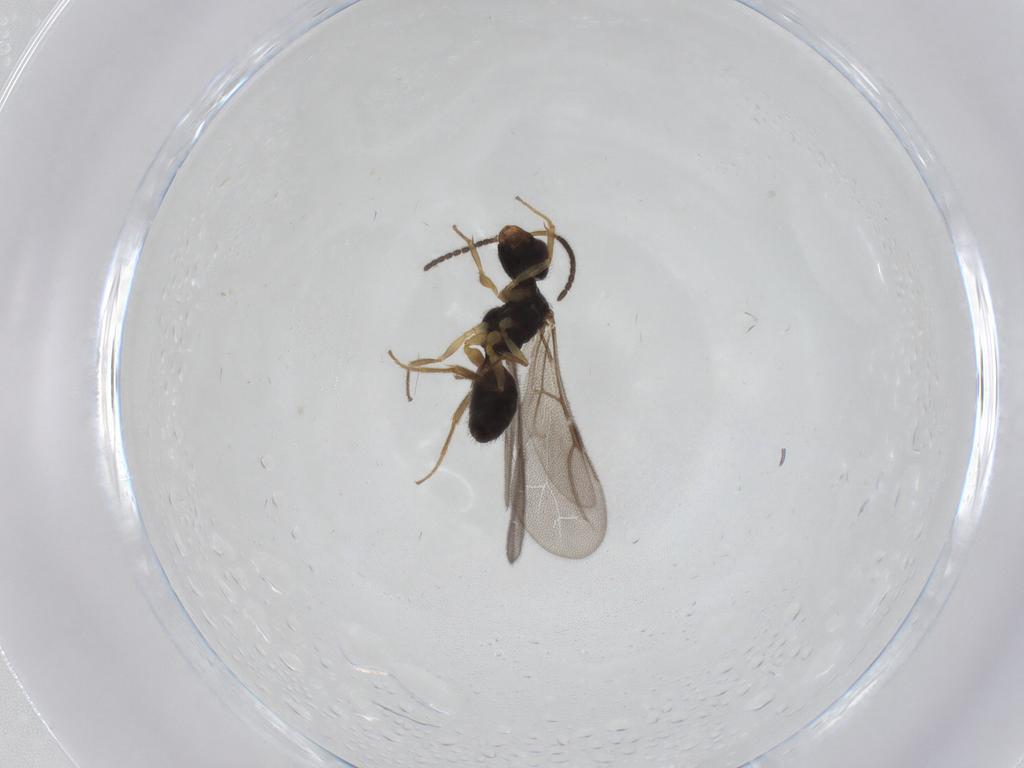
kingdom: Animalia
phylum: Arthropoda
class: Insecta
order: Hymenoptera
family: Bethylidae
